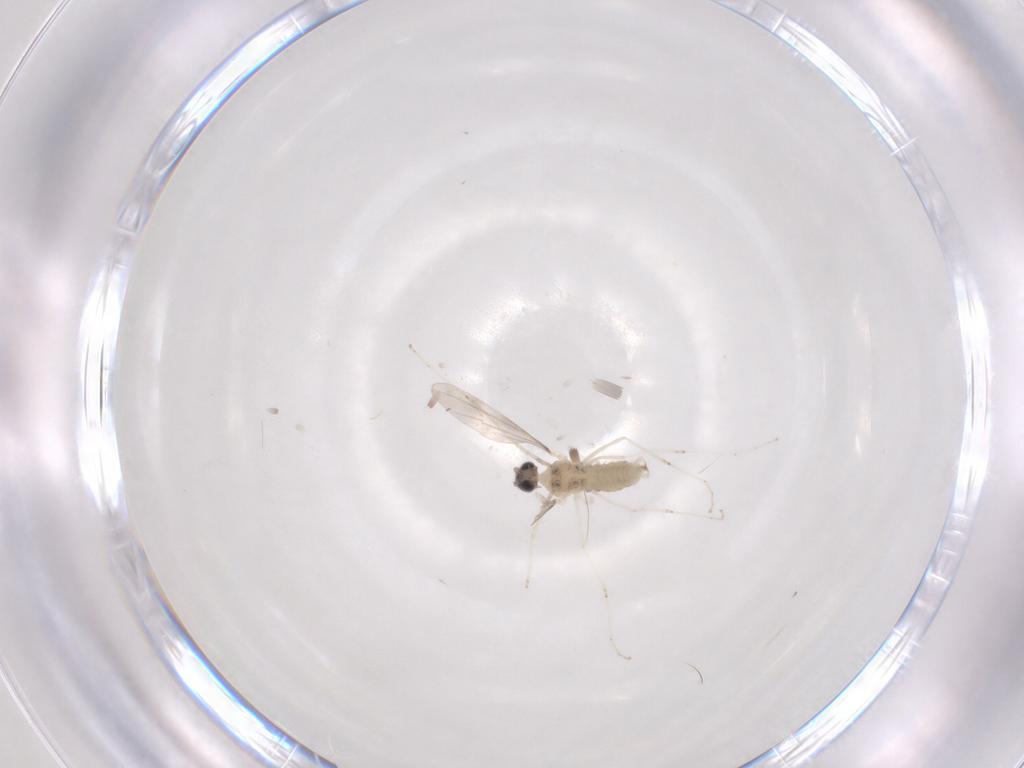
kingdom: Animalia
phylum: Arthropoda
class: Insecta
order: Diptera
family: Cecidomyiidae
